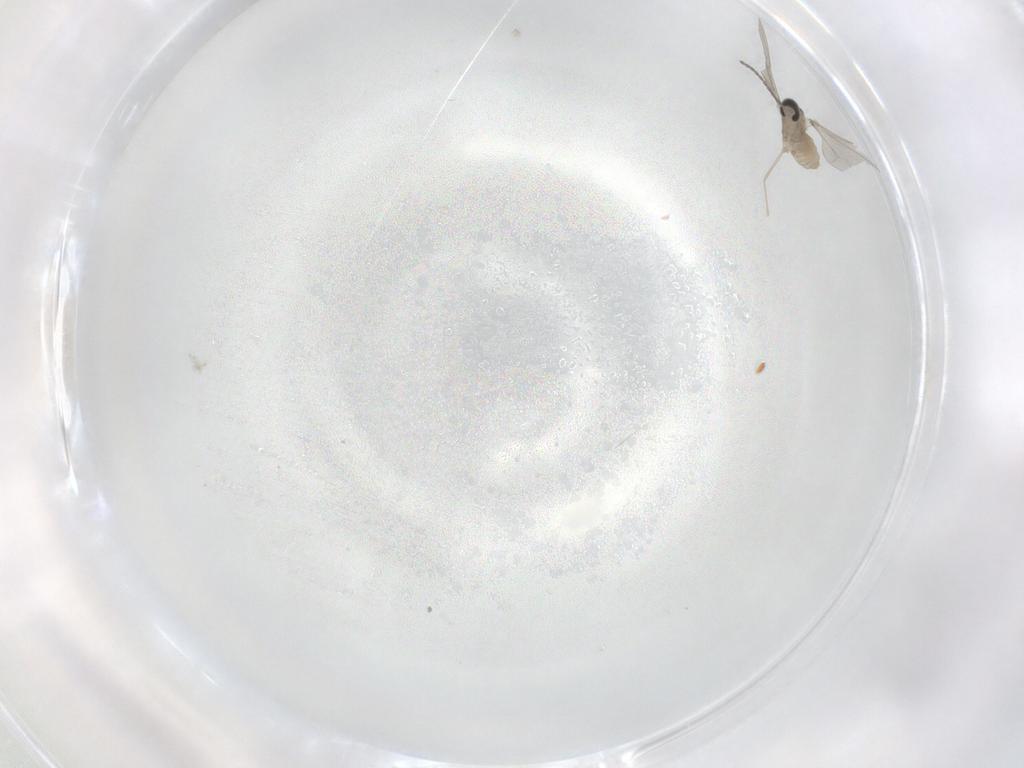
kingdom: Animalia
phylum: Arthropoda
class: Insecta
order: Diptera
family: Cecidomyiidae
